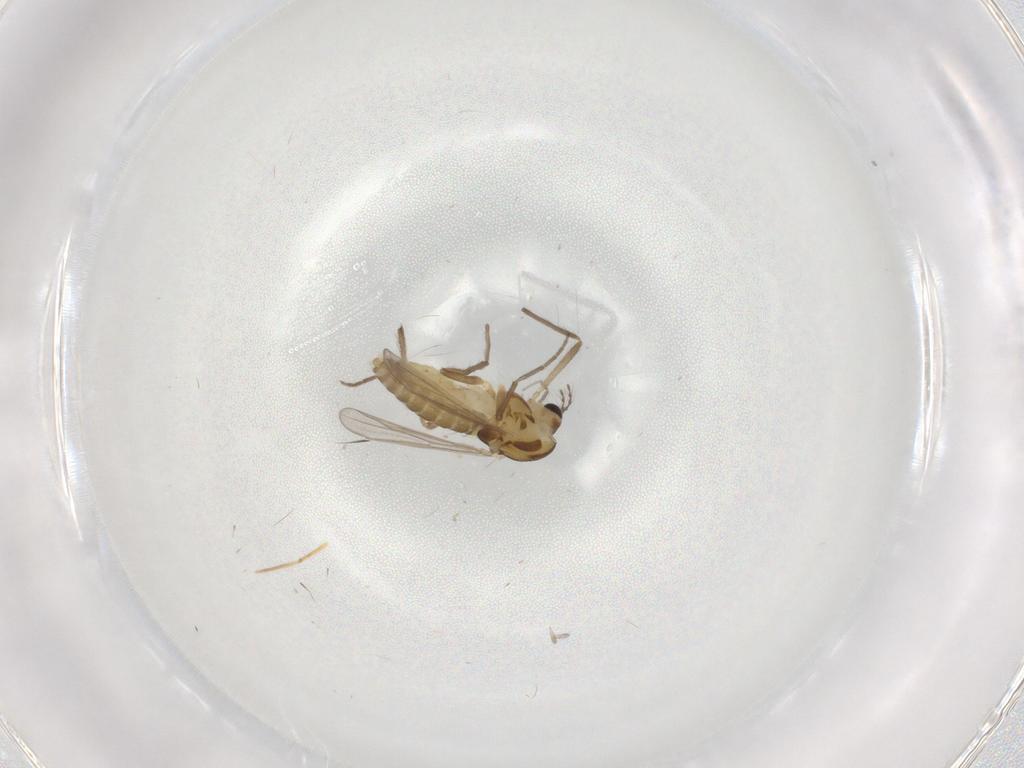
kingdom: Animalia
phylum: Arthropoda
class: Insecta
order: Diptera
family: Chironomidae
